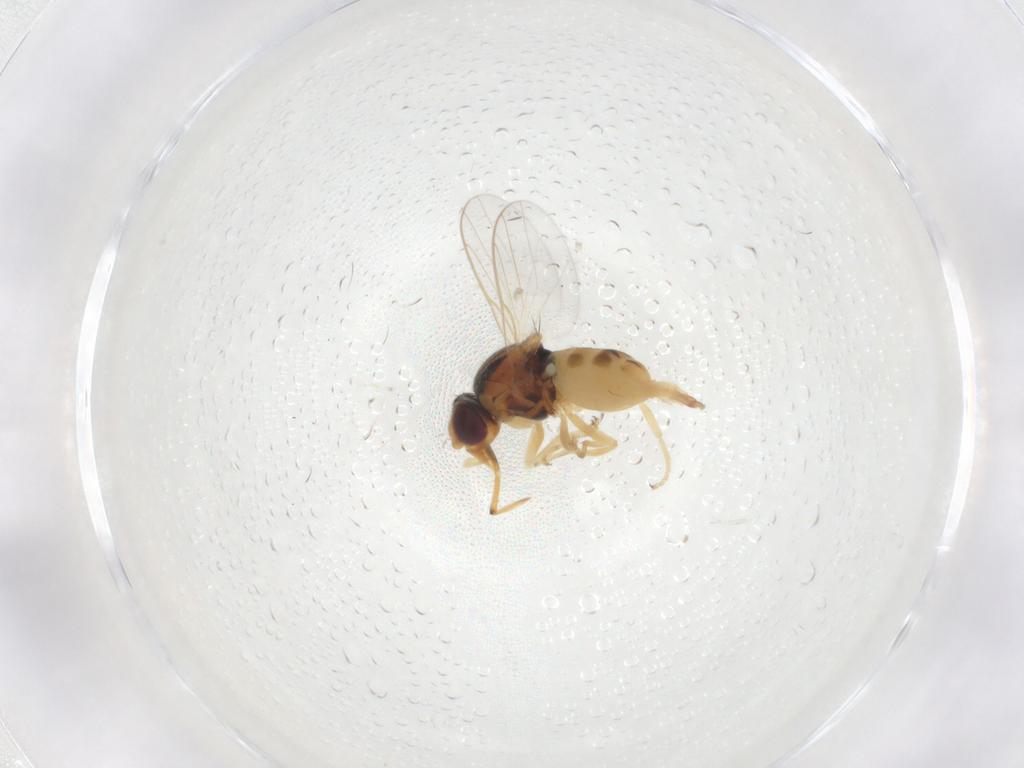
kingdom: Animalia
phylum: Arthropoda
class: Insecta
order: Diptera
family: Chloropidae
